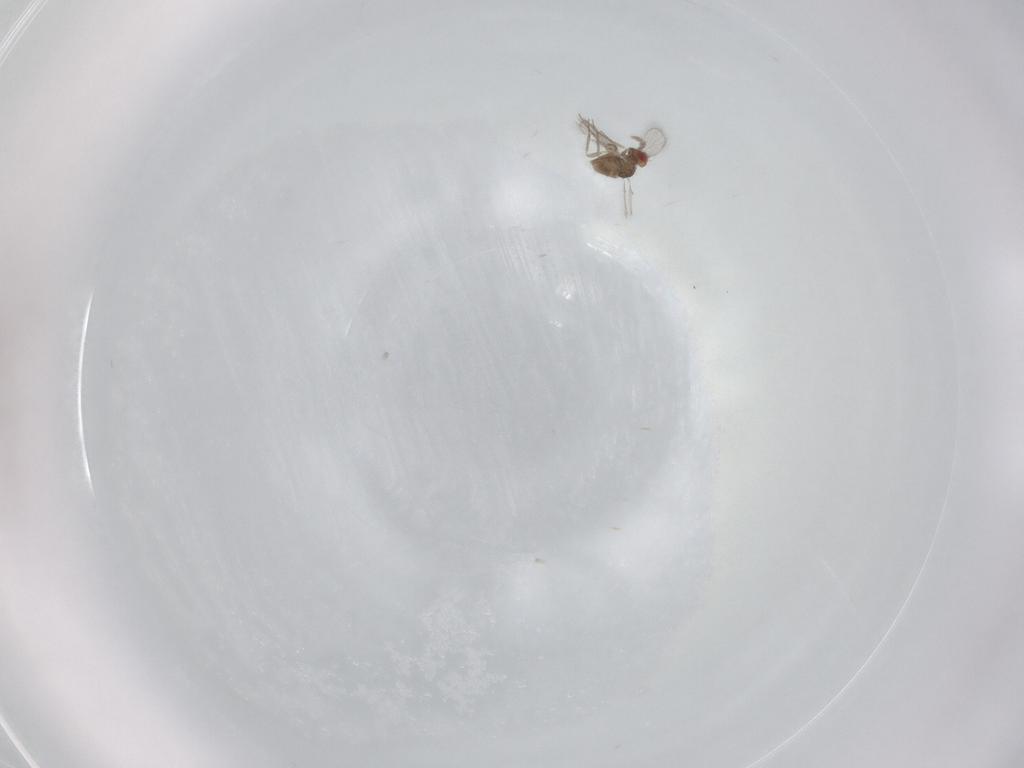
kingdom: Animalia
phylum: Arthropoda
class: Insecta
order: Hymenoptera
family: Trichogrammatidae
